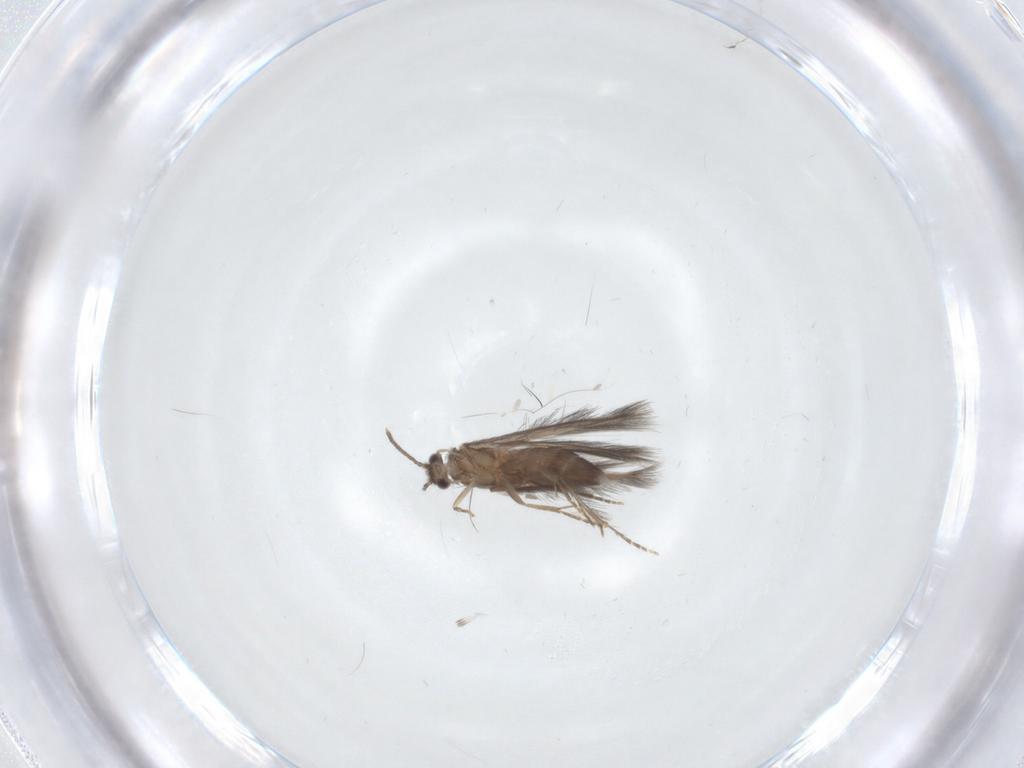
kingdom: Animalia
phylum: Arthropoda
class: Insecta
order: Trichoptera
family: Hydroptilidae
